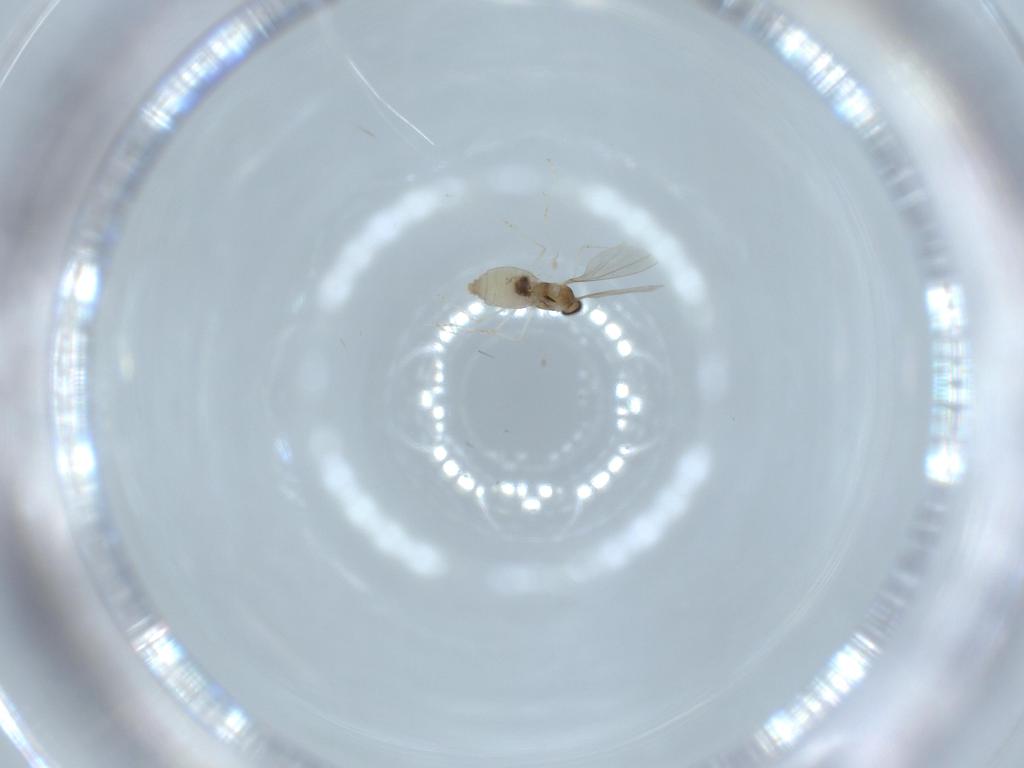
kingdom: Animalia
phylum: Arthropoda
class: Insecta
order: Diptera
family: Cecidomyiidae
